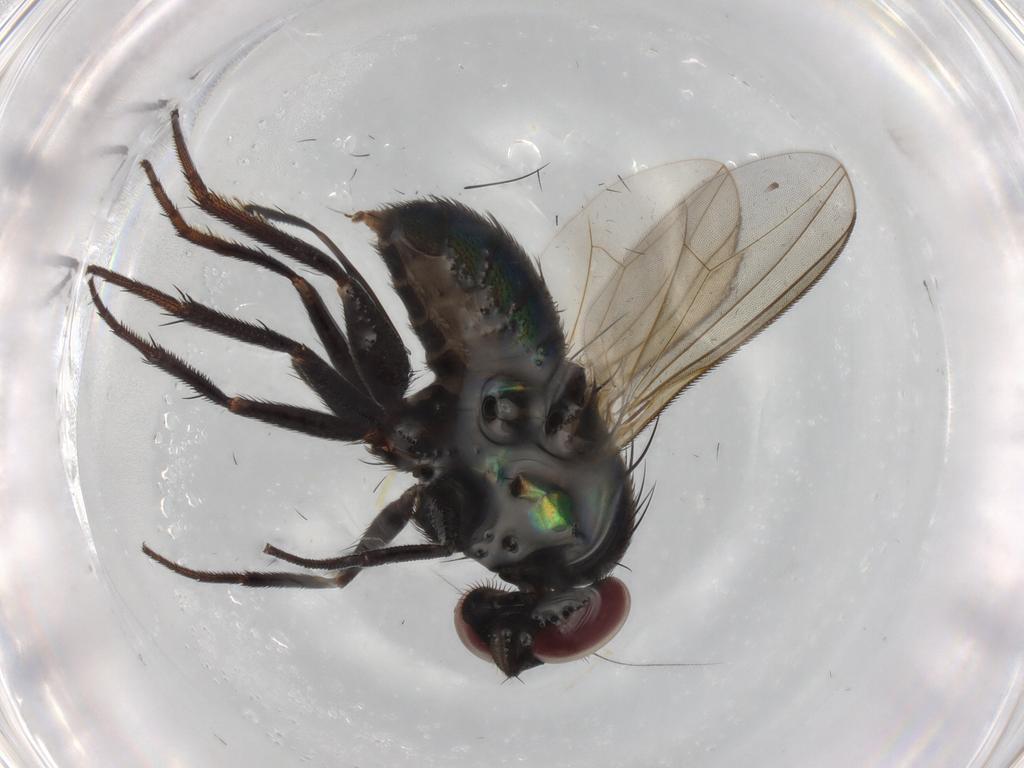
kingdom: Animalia
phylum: Arthropoda
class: Insecta
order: Diptera
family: Dolichopodidae
